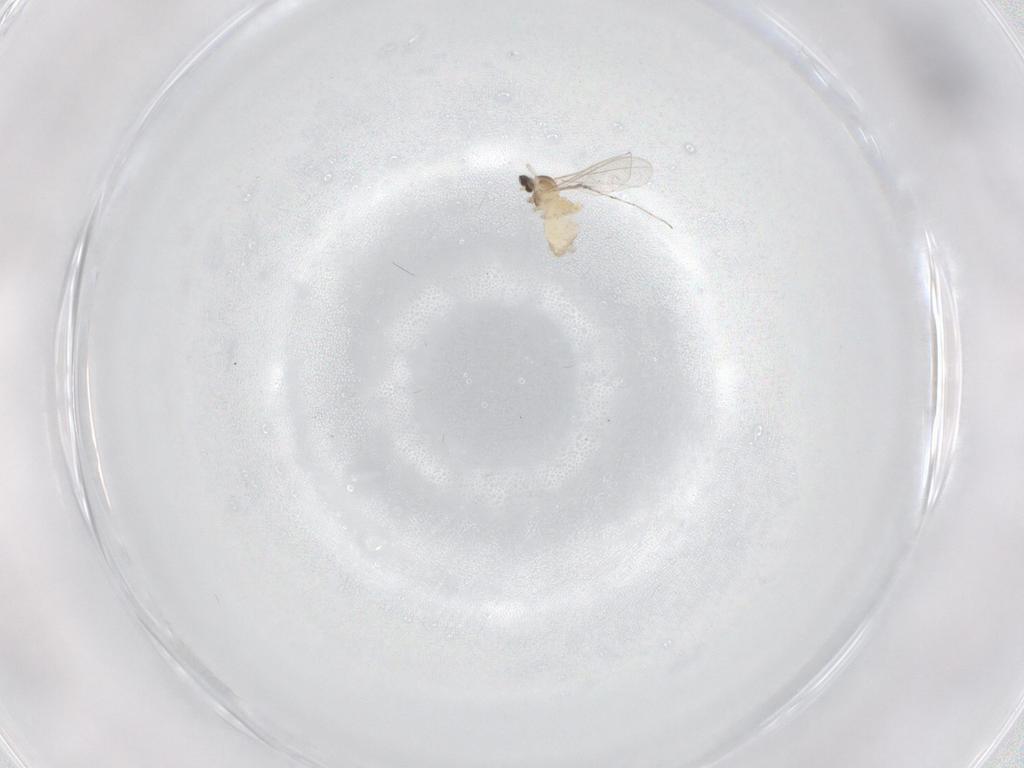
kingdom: Animalia
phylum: Arthropoda
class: Insecta
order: Diptera
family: Cecidomyiidae
